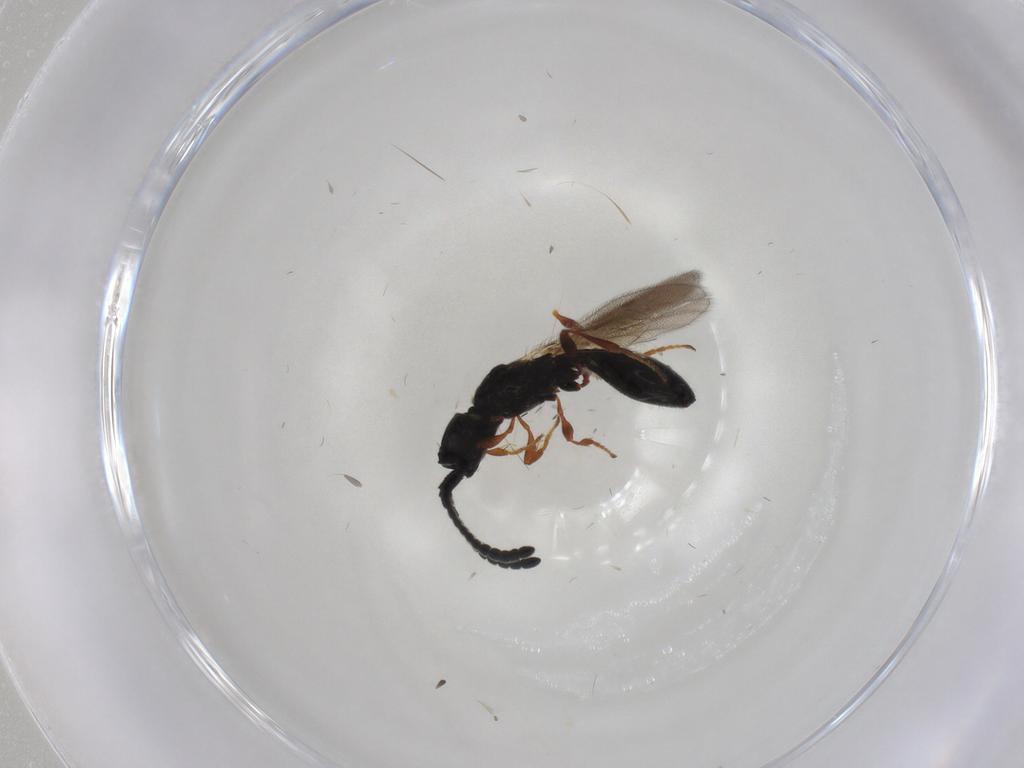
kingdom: Animalia
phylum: Arthropoda
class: Insecta
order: Hymenoptera
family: Diapriidae
